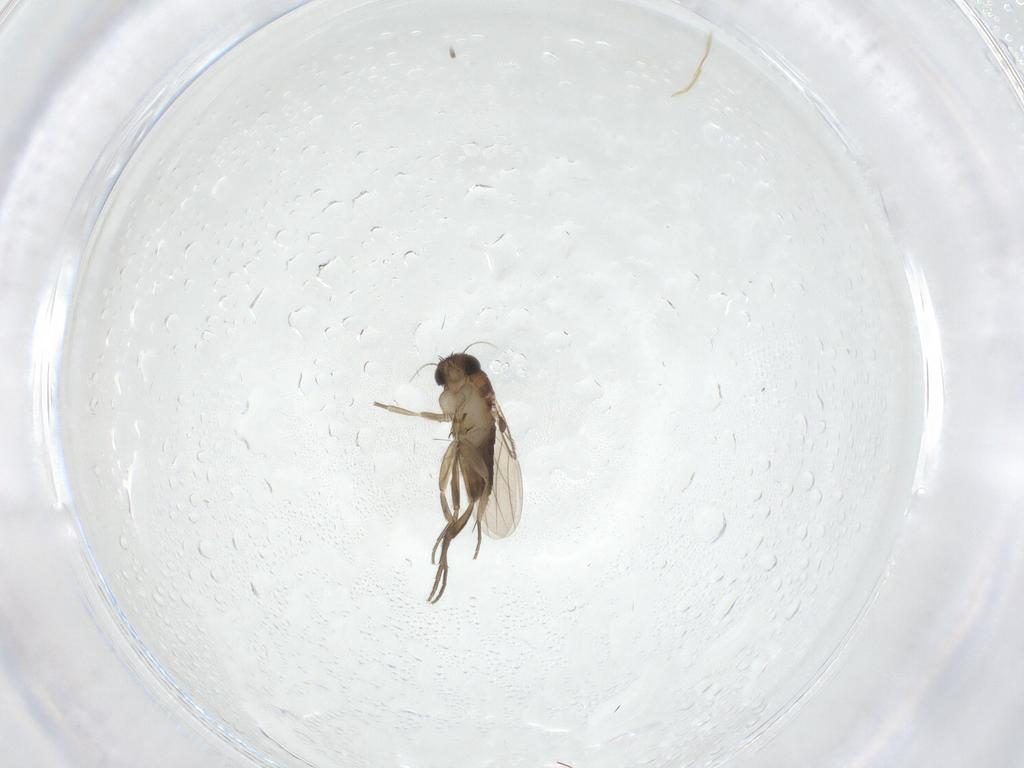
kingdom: Animalia
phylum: Arthropoda
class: Insecta
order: Diptera
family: Phoridae
